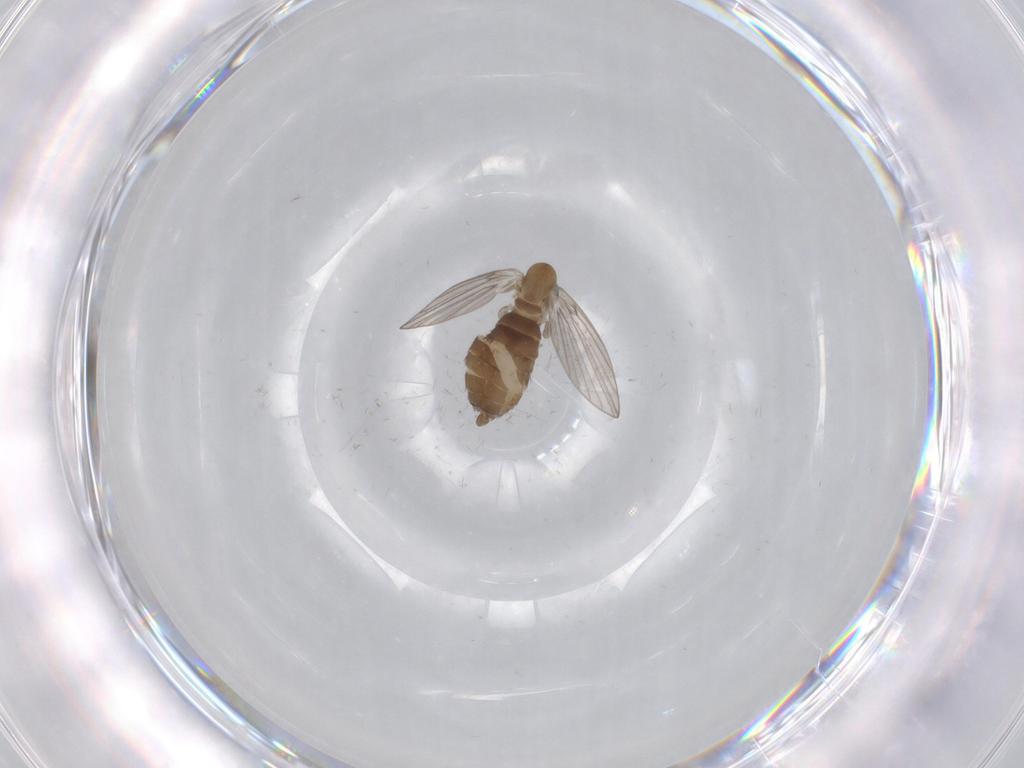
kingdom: Animalia
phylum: Arthropoda
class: Insecta
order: Diptera
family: Psychodidae
